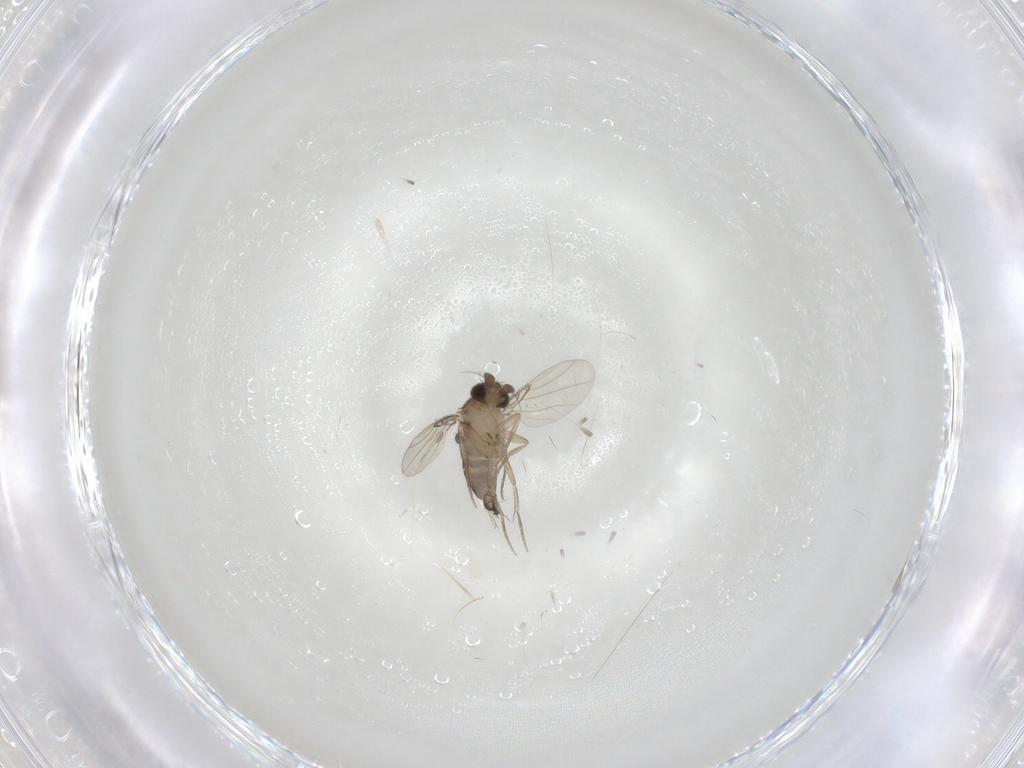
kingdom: Animalia
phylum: Arthropoda
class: Insecta
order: Diptera
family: Phoridae
